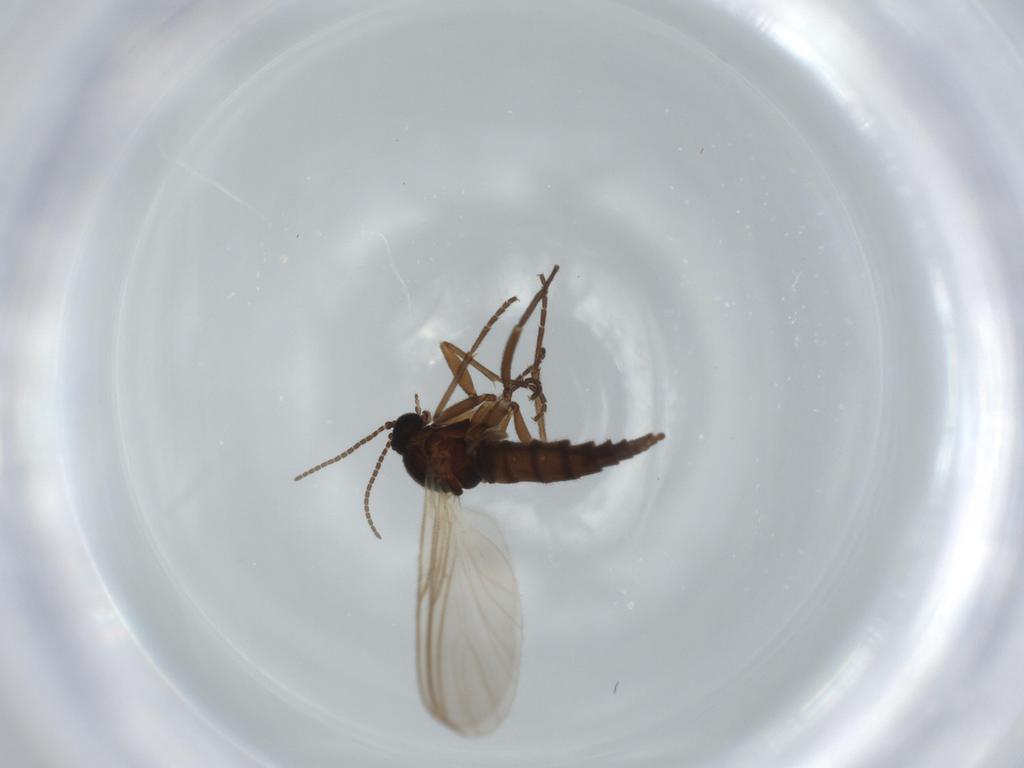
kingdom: Animalia
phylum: Arthropoda
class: Insecta
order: Diptera
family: Sciaridae
